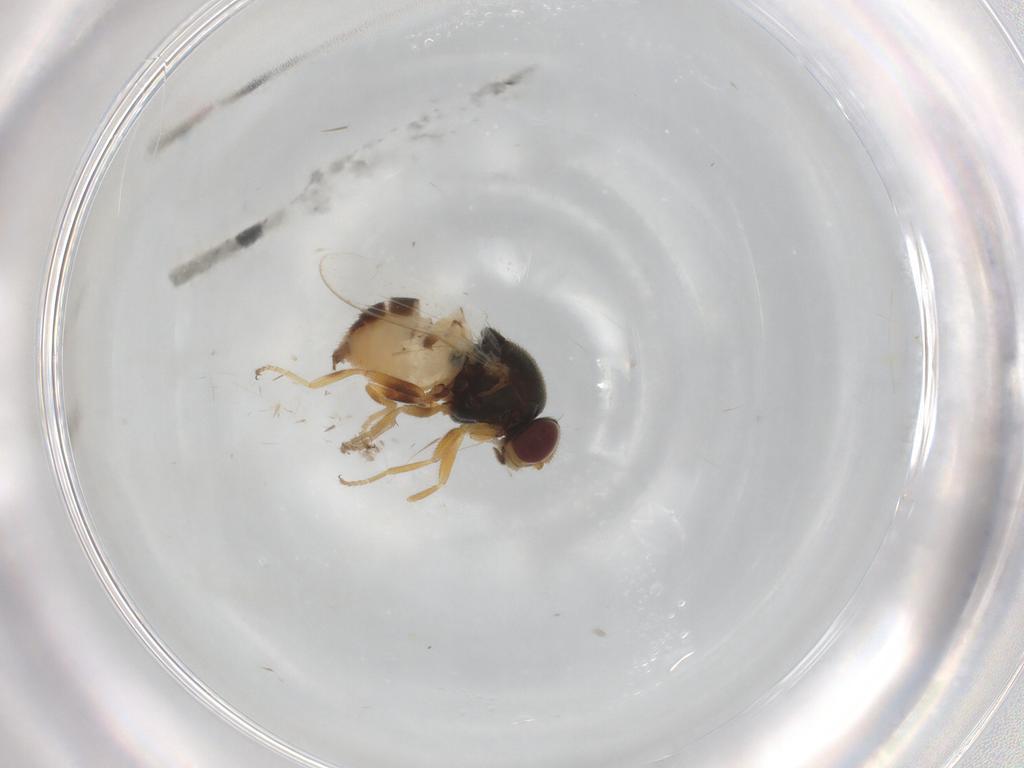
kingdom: Animalia
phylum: Arthropoda
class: Insecta
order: Diptera
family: Chloropidae
